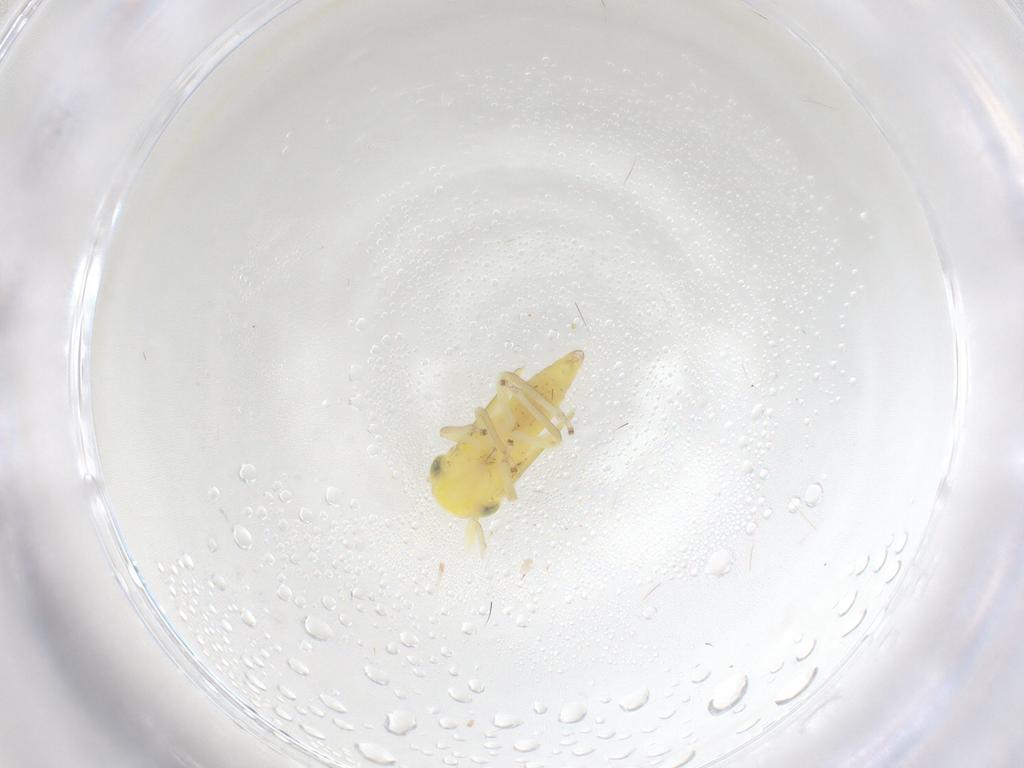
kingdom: Animalia
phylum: Arthropoda
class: Insecta
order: Hemiptera
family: Cicadellidae
